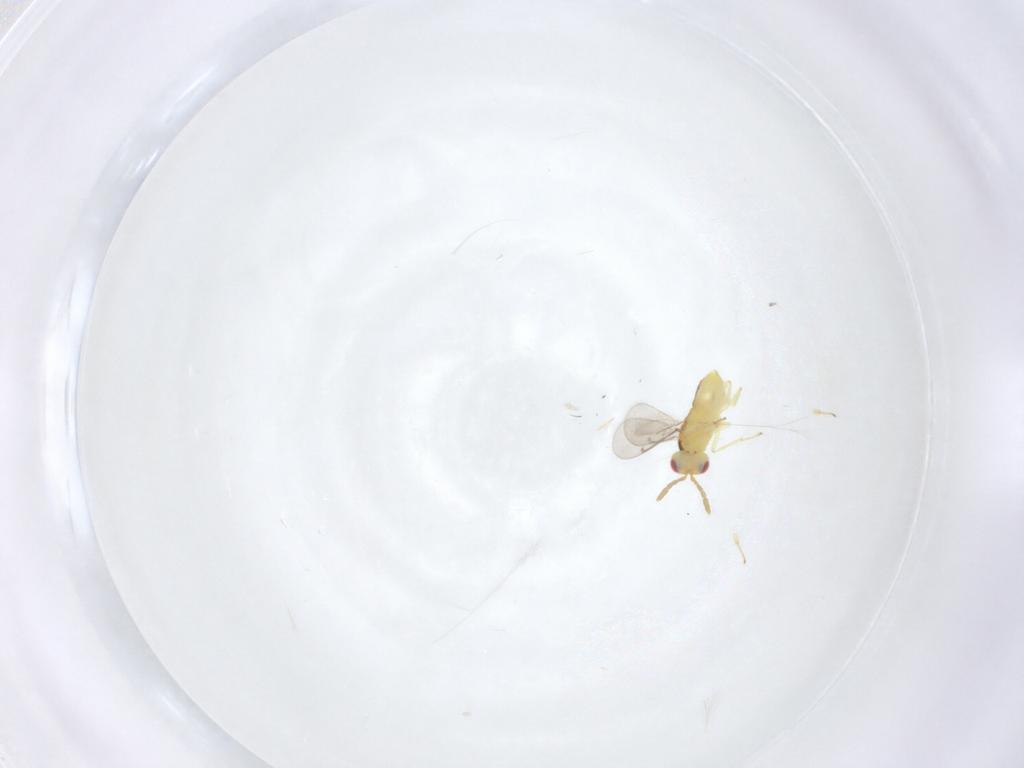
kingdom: Animalia
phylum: Arthropoda
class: Insecta
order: Hymenoptera
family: Aphelinidae
